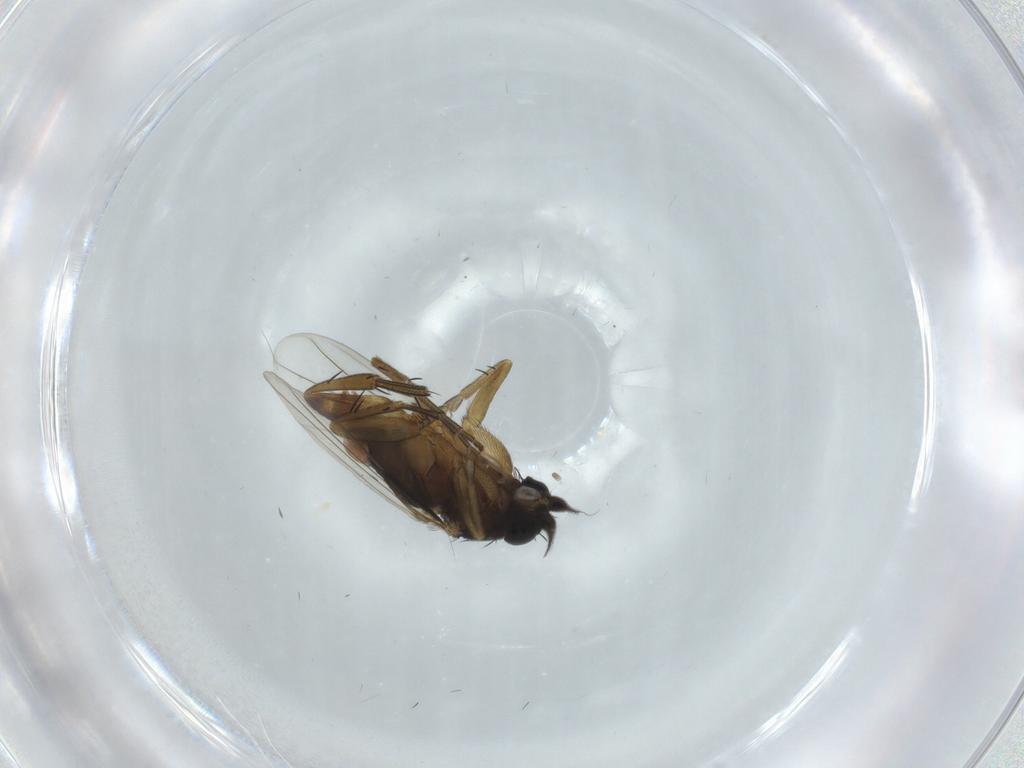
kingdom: Animalia
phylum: Arthropoda
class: Insecta
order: Diptera
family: Phoridae
